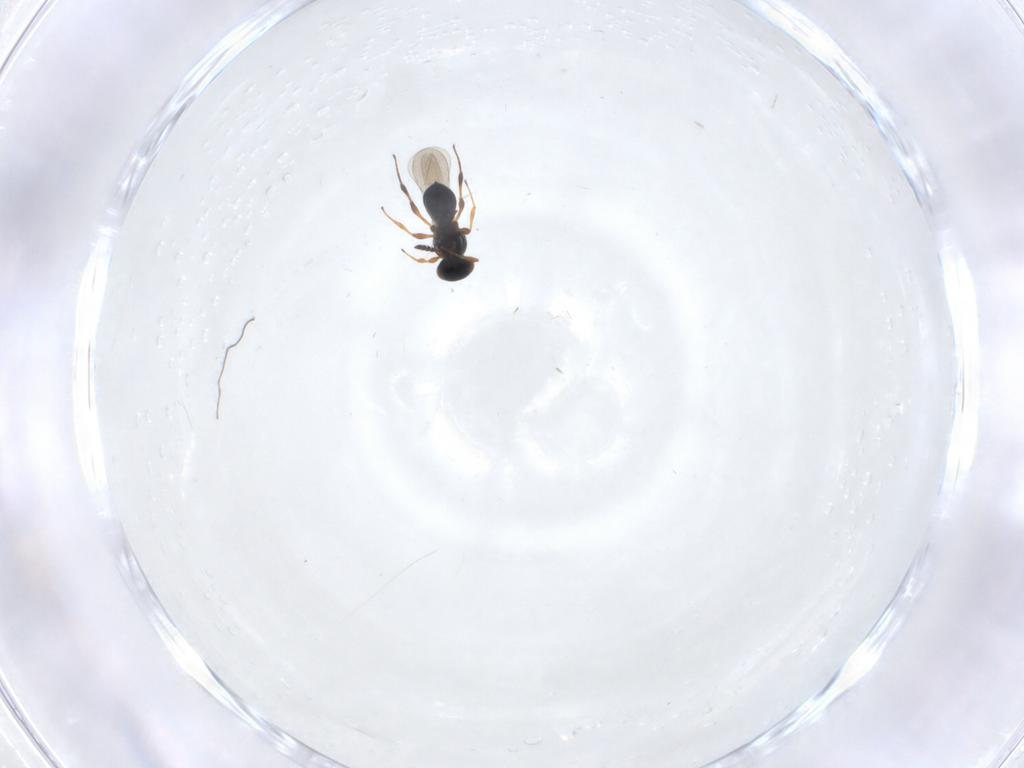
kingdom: Animalia
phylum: Arthropoda
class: Insecta
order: Hymenoptera
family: Platygastridae
